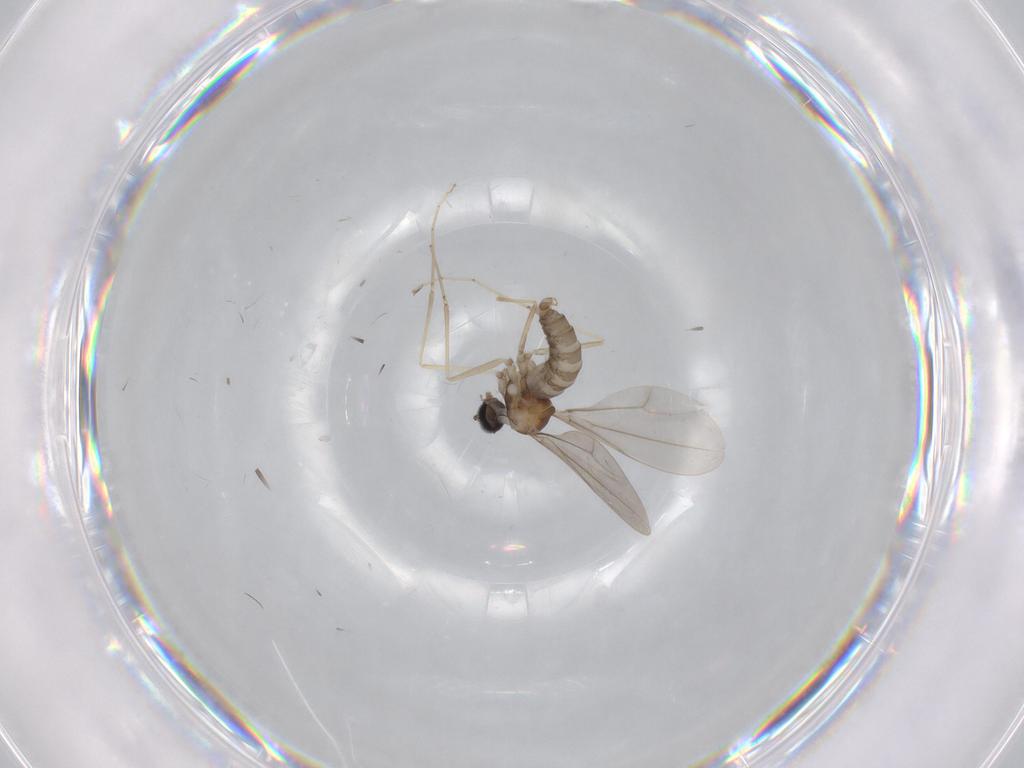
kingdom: Animalia
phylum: Arthropoda
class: Insecta
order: Diptera
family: Cecidomyiidae
